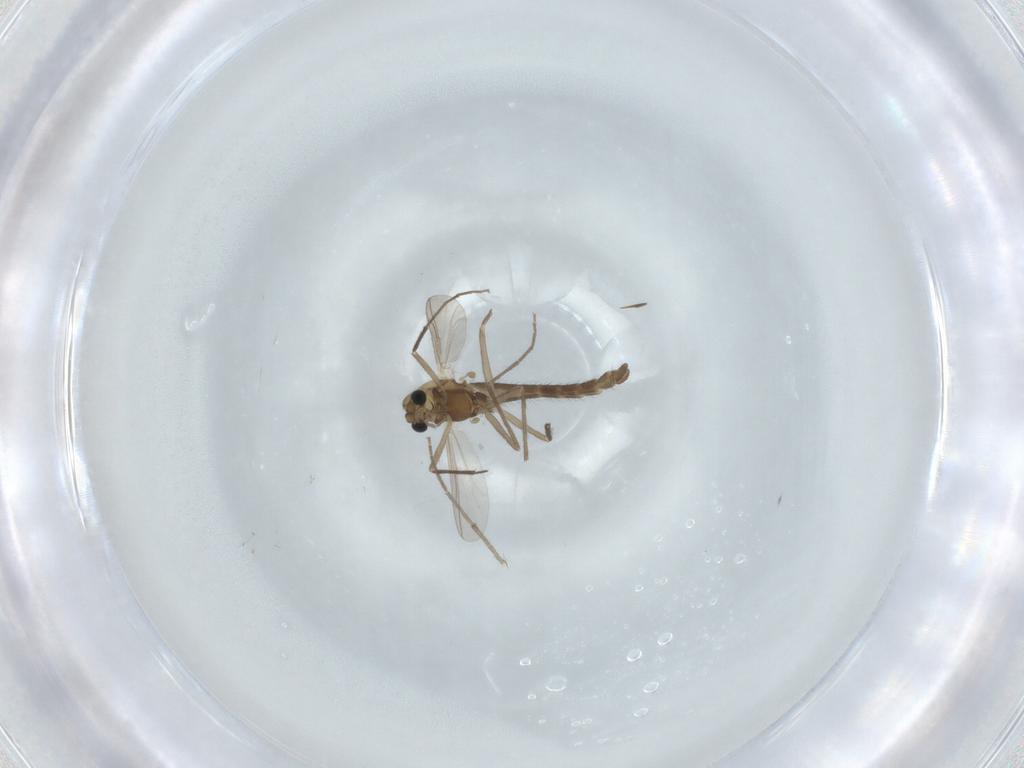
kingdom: Animalia
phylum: Arthropoda
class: Insecta
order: Diptera
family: Chironomidae
